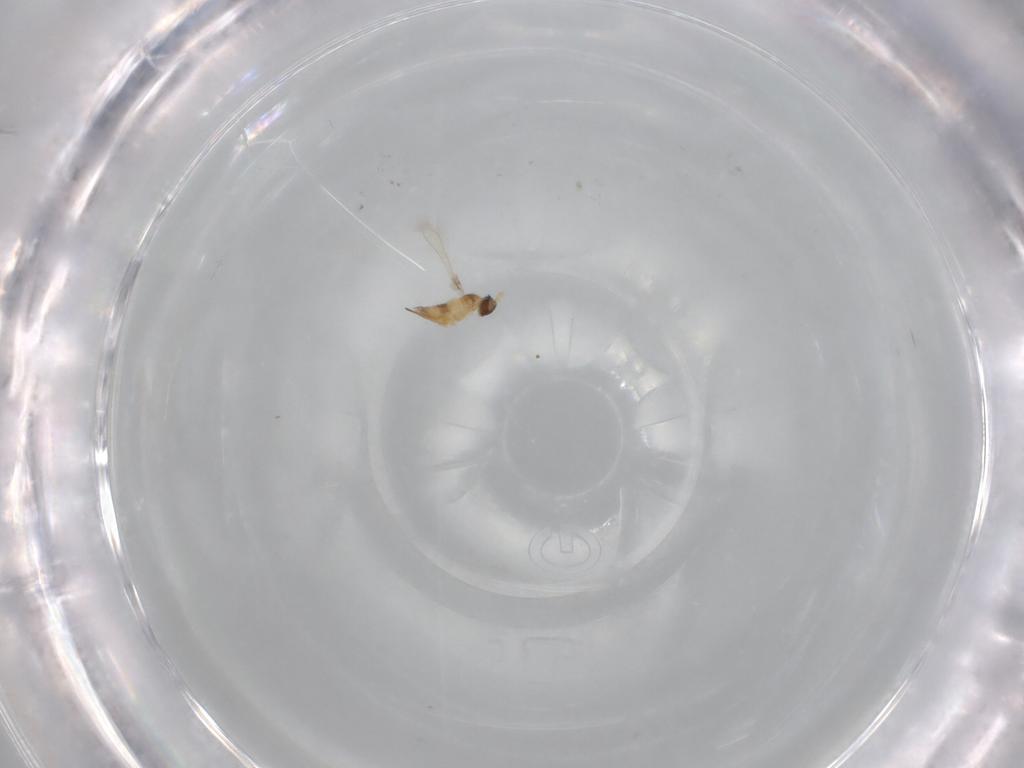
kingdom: Animalia
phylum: Arthropoda
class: Insecta
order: Hymenoptera
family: Mymaridae
